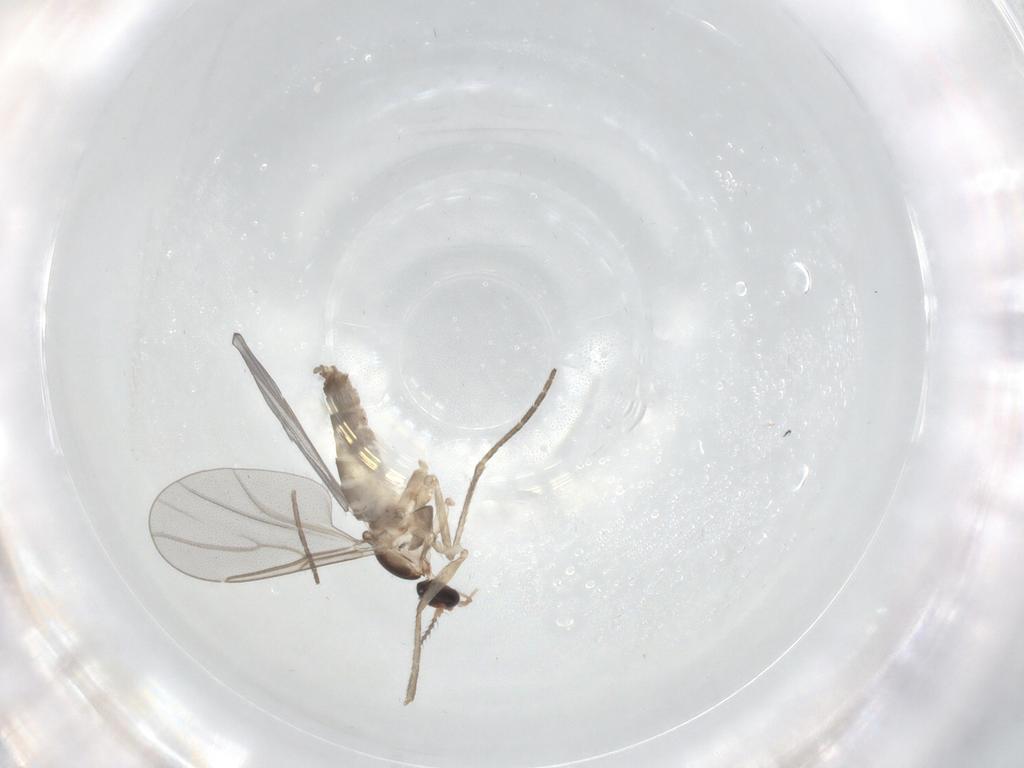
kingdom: Animalia
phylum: Arthropoda
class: Insecta
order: Diptera
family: Cecidomyiidae
